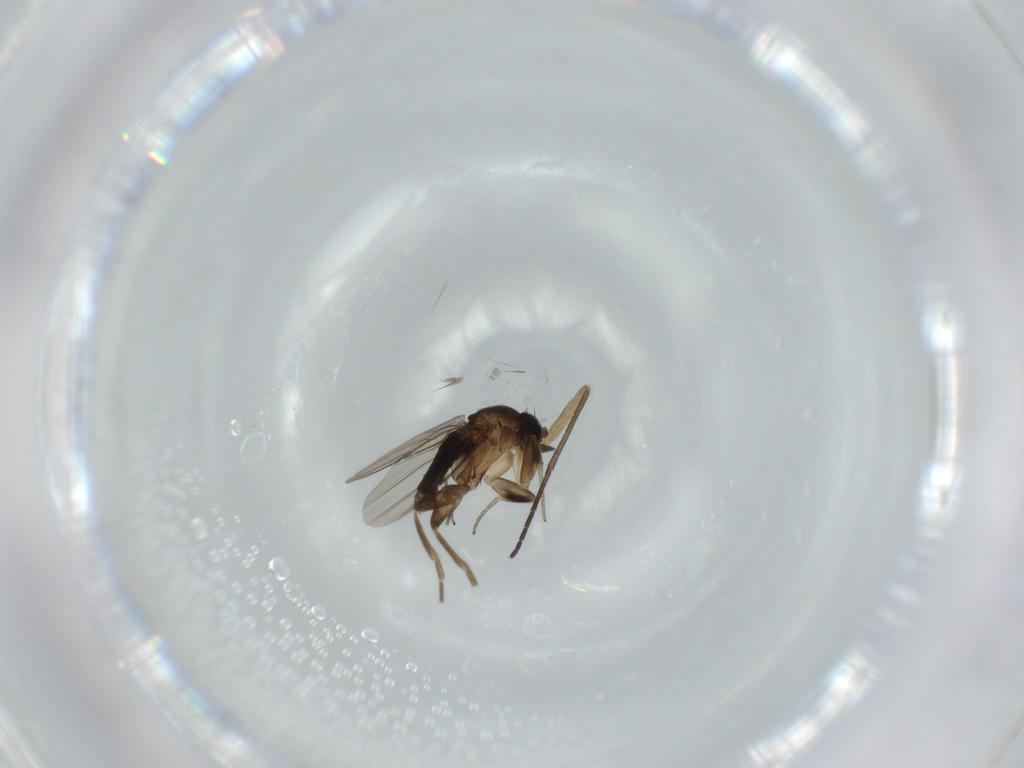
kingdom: Animalia
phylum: Arthropoda
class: Insecta
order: Diptera
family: Phoridae
